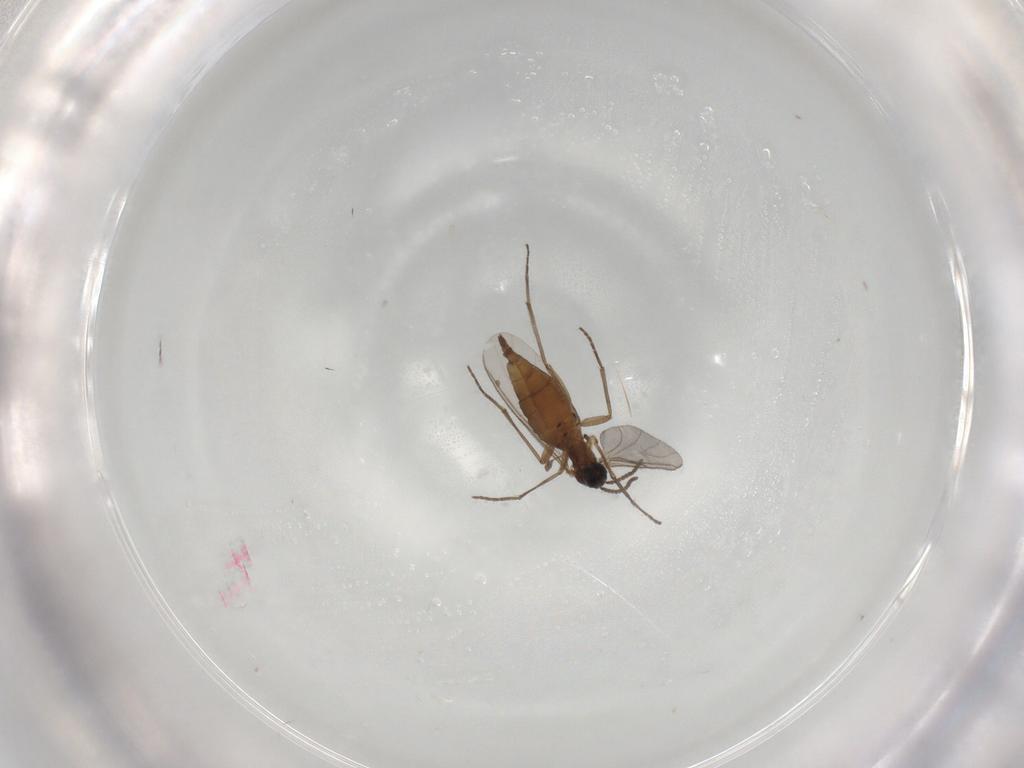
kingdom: Animalia
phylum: Arthropoda
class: Insecta
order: Diptera
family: Sciaridae
